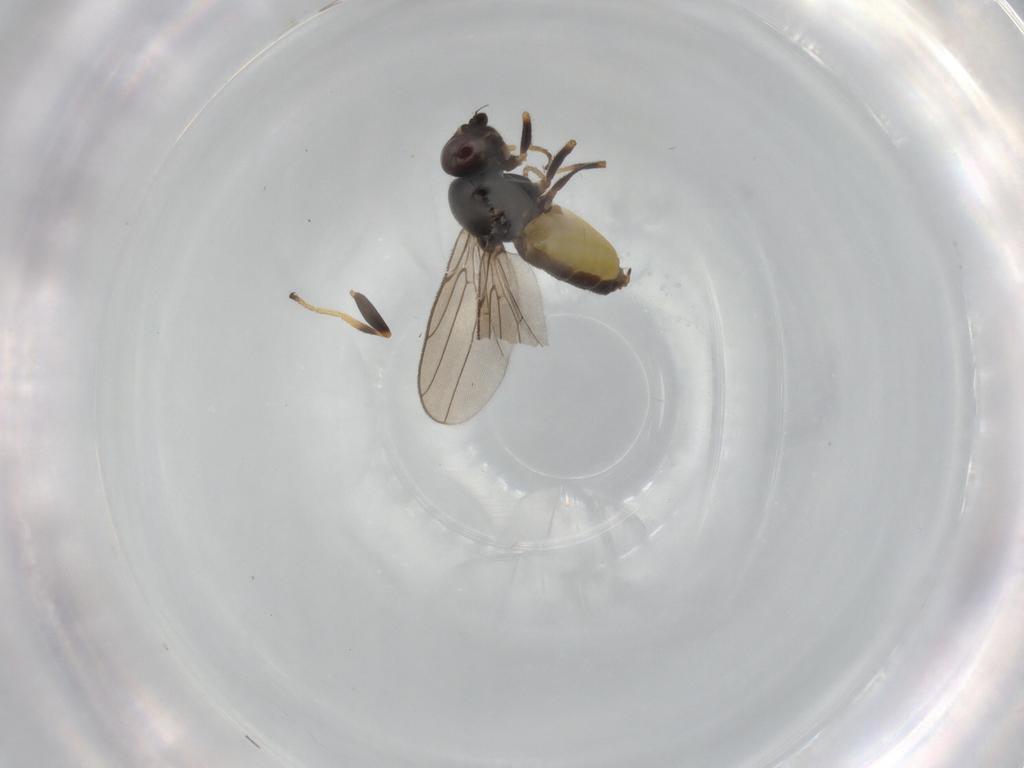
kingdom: Animalia
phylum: Arthropoda
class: Insecta
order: Diptera
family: Chloropidae
